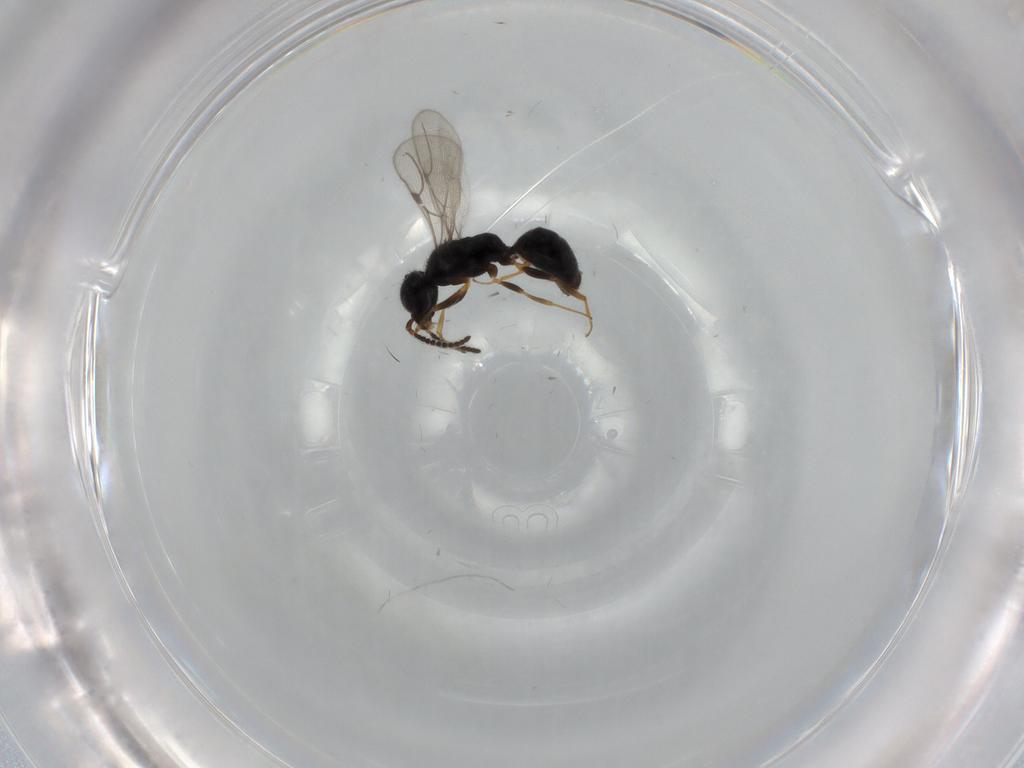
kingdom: Animalia
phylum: Arthropoda
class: Insecta
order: Hymenoptera
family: Bethylidae
